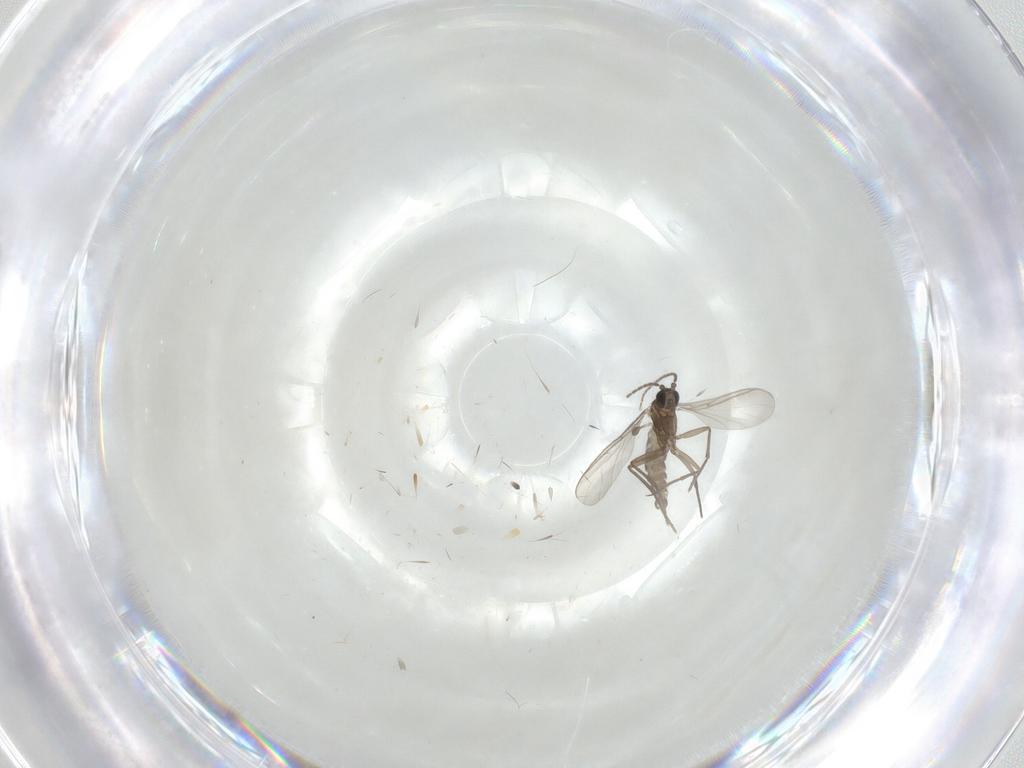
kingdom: Animalia
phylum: Arthropoda
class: Insecta
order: Diptera
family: Sciaridae
